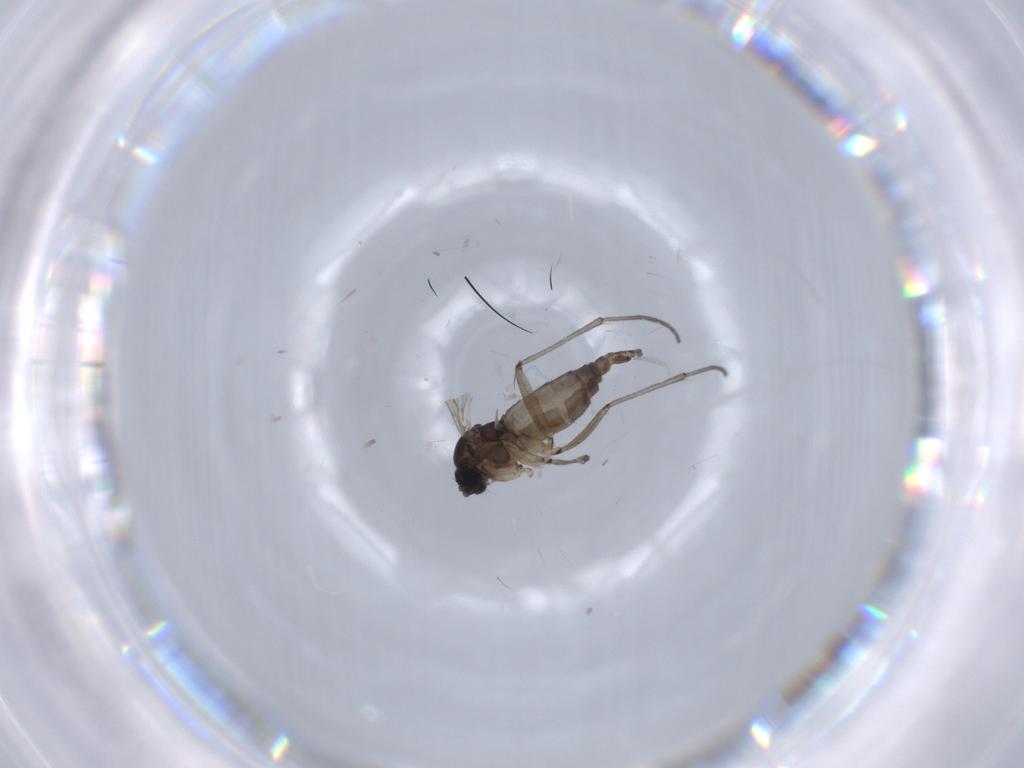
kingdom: Animalia
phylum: Arthropoda
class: Insecta
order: Diptera
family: Sciaridae
